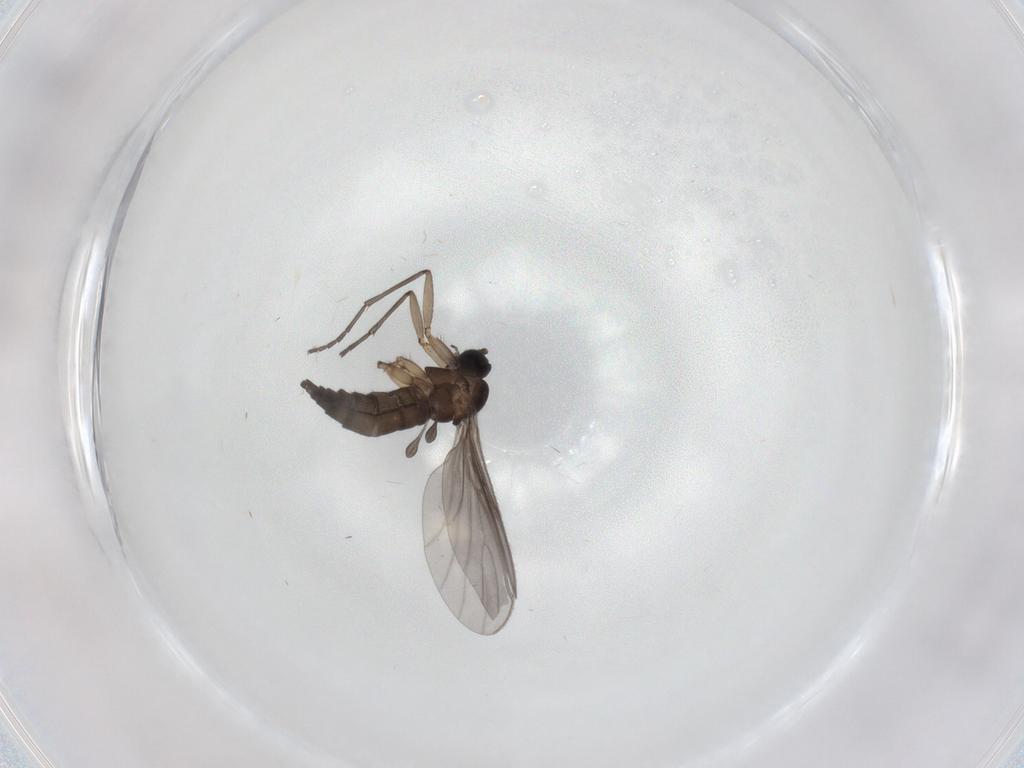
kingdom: Animalia
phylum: Arthropoda
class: Insecta
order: Diptera
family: Sciaridae
